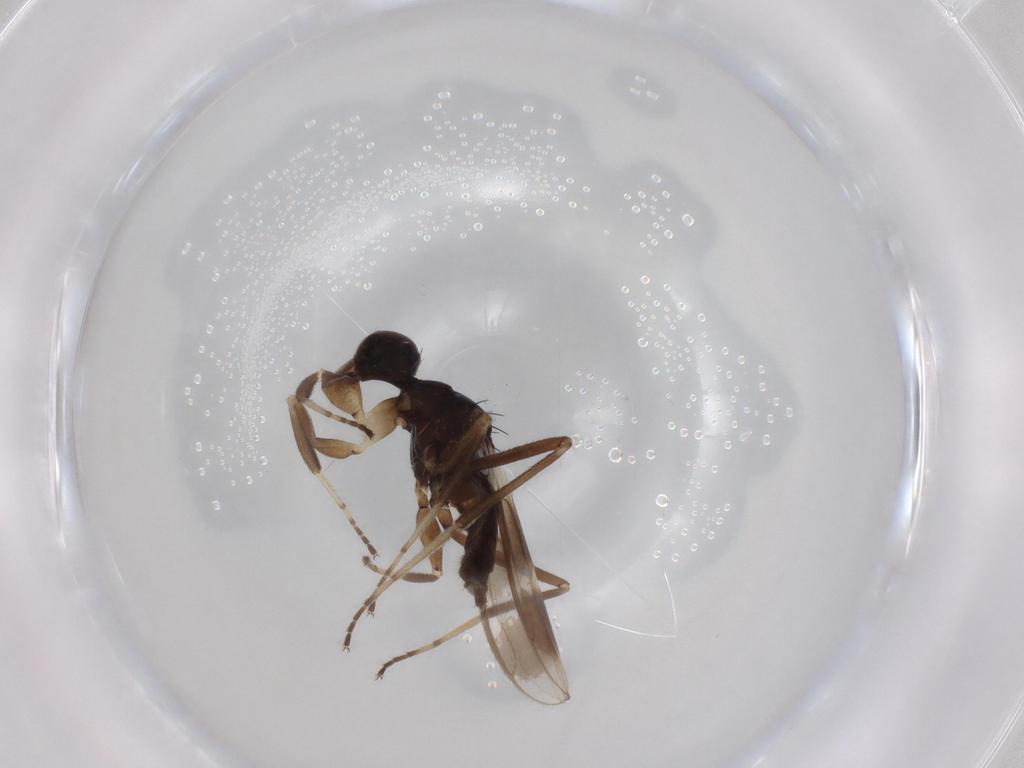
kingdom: Animalia
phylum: Arthropoda
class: Insecta
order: Diptera
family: Hybotidae
